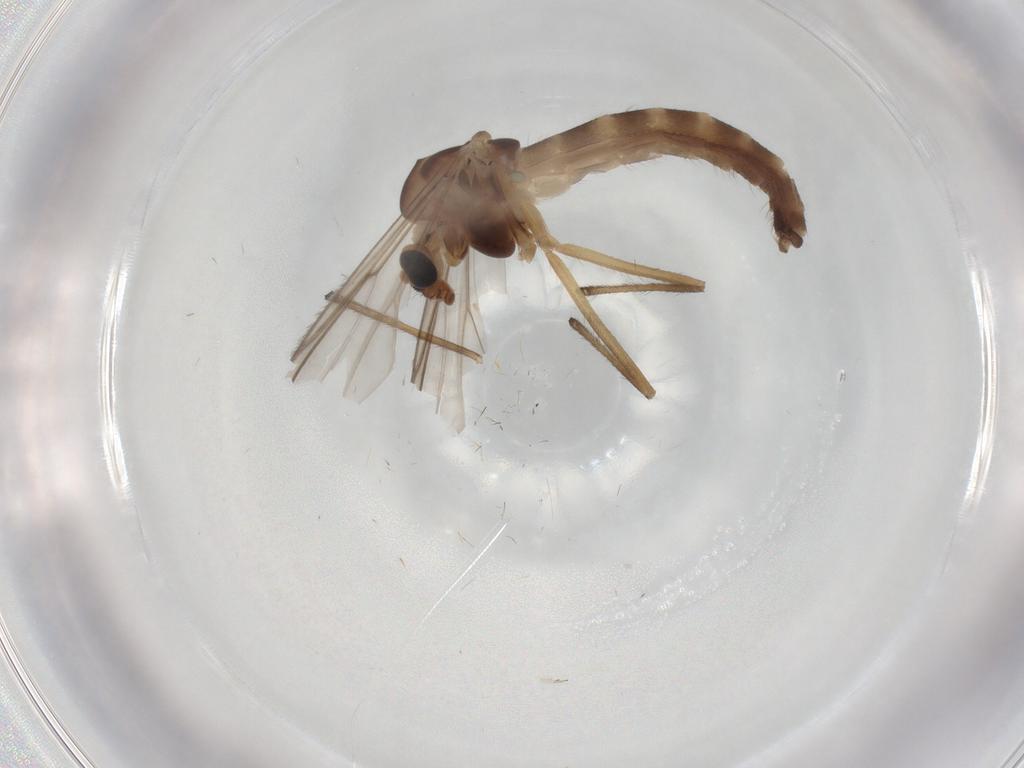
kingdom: Animalia
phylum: Arthropoda
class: Insecta
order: Diptera
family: Chironomidae
